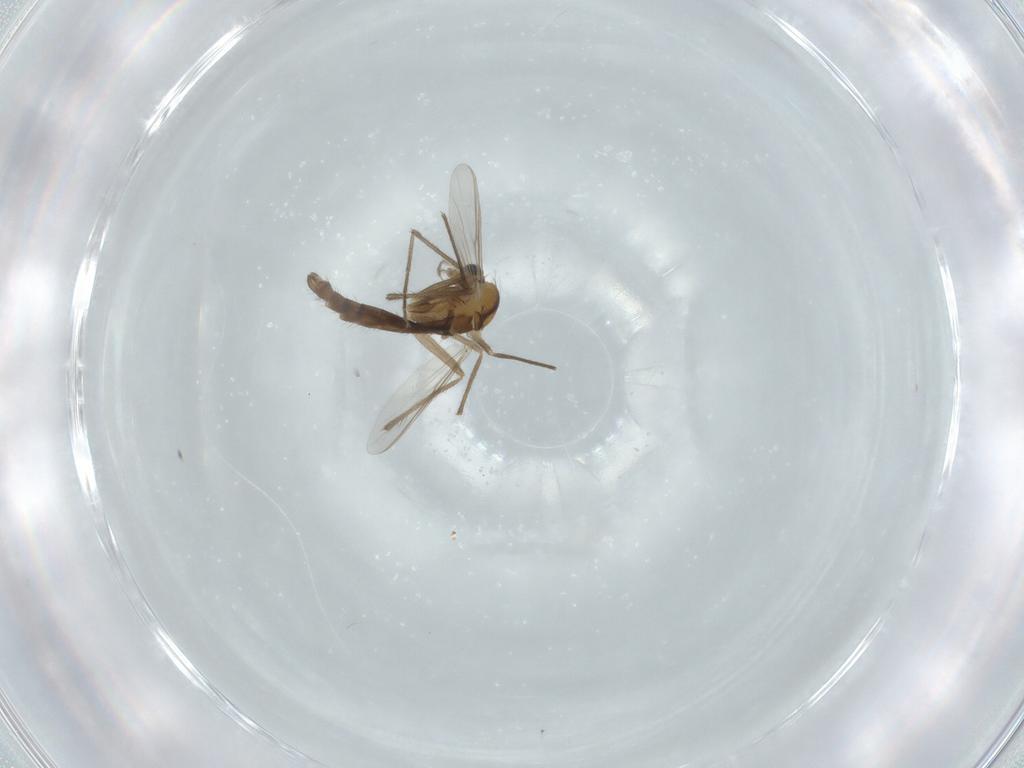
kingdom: Animalia
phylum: Arthropoda
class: Insecta
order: Diptera
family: Chironomidae
